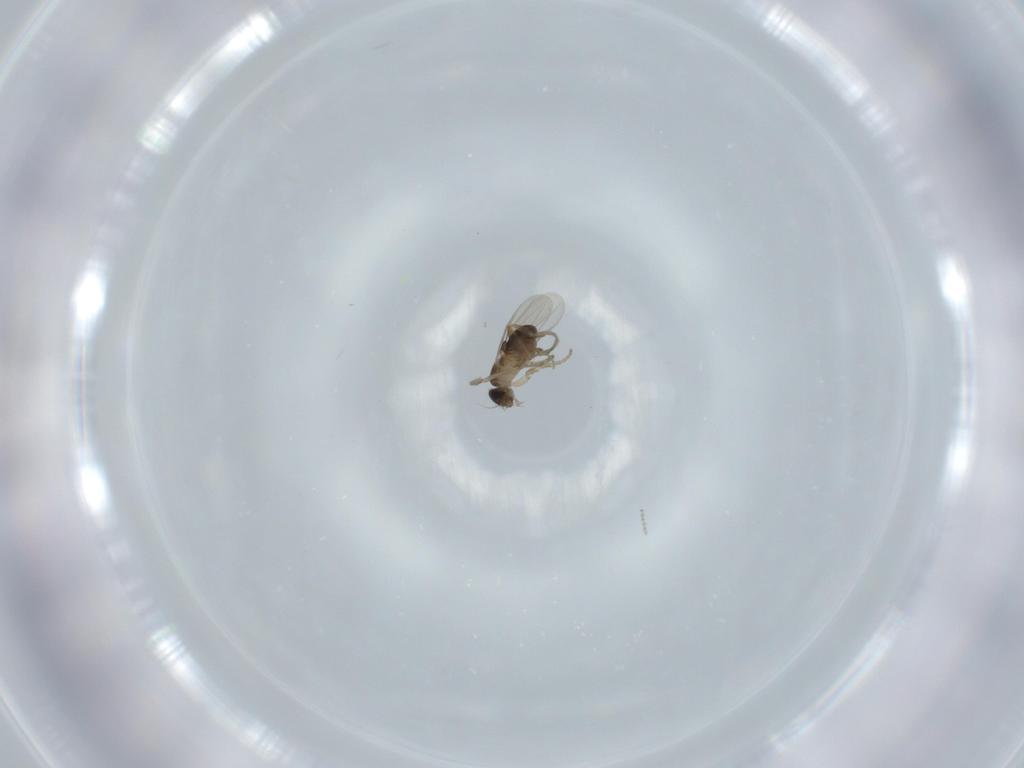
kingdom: Animalia
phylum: Arthropoda
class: Insecta
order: Diptera
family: Phoridae
